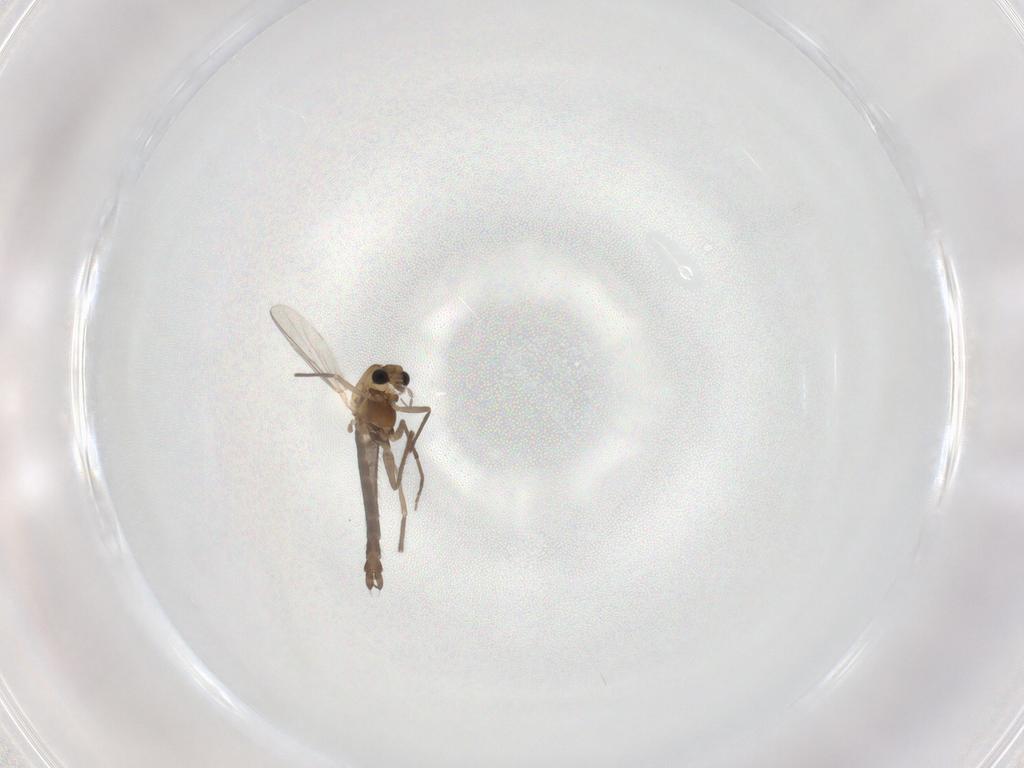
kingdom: Animalia
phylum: Arthropoda
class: Insecta
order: Diptera
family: Chironomidae
